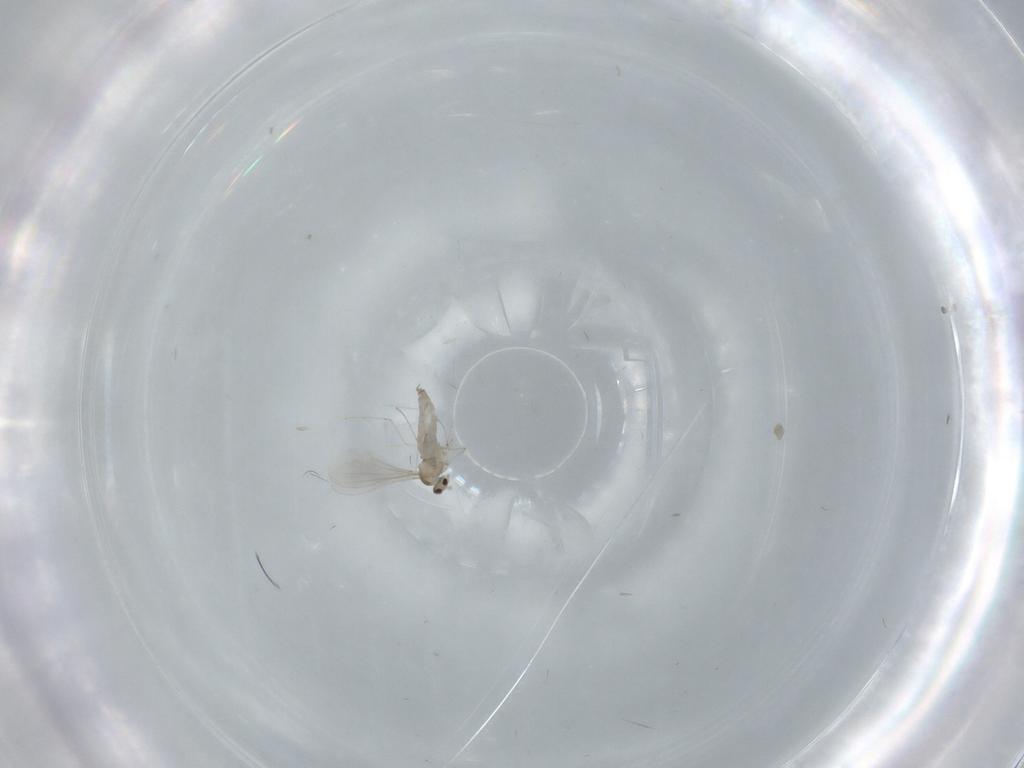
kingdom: Animalia
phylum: Arthropoda
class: Insecta
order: Diptera
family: Cecidomyiidae
